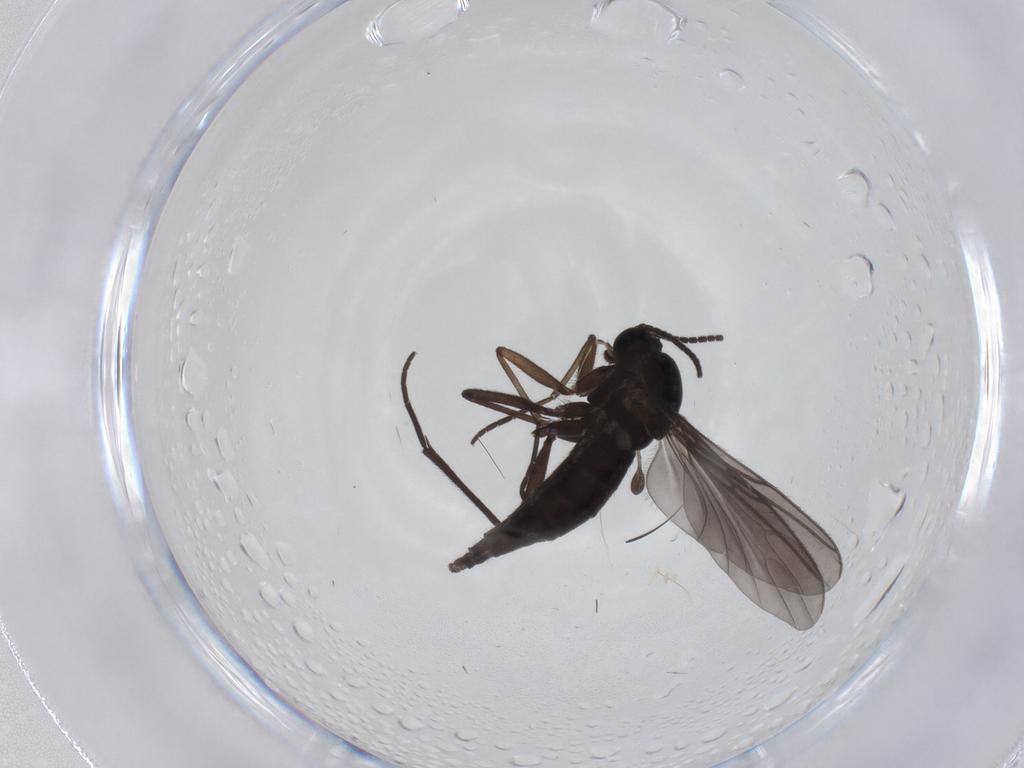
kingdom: Animalia
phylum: Arthropoda
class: Insecta
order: Diptera
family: Sciaridae
